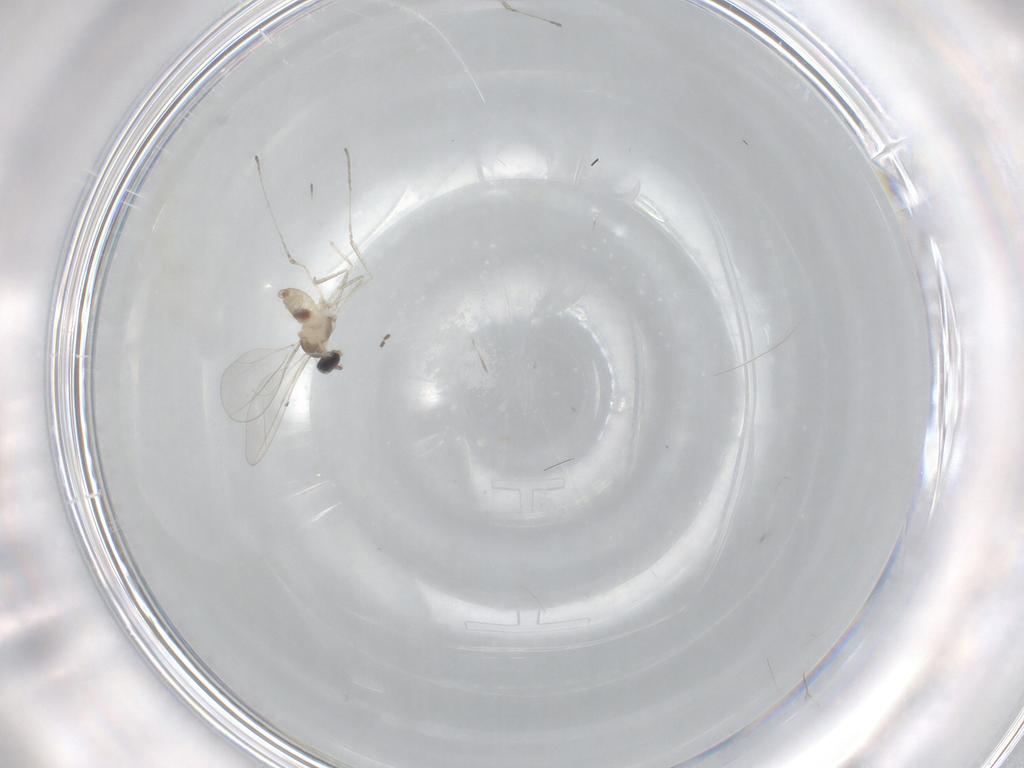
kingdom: Animalia
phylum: Arthropoda
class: Insecta
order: Diptera
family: Cecidomyiidae
